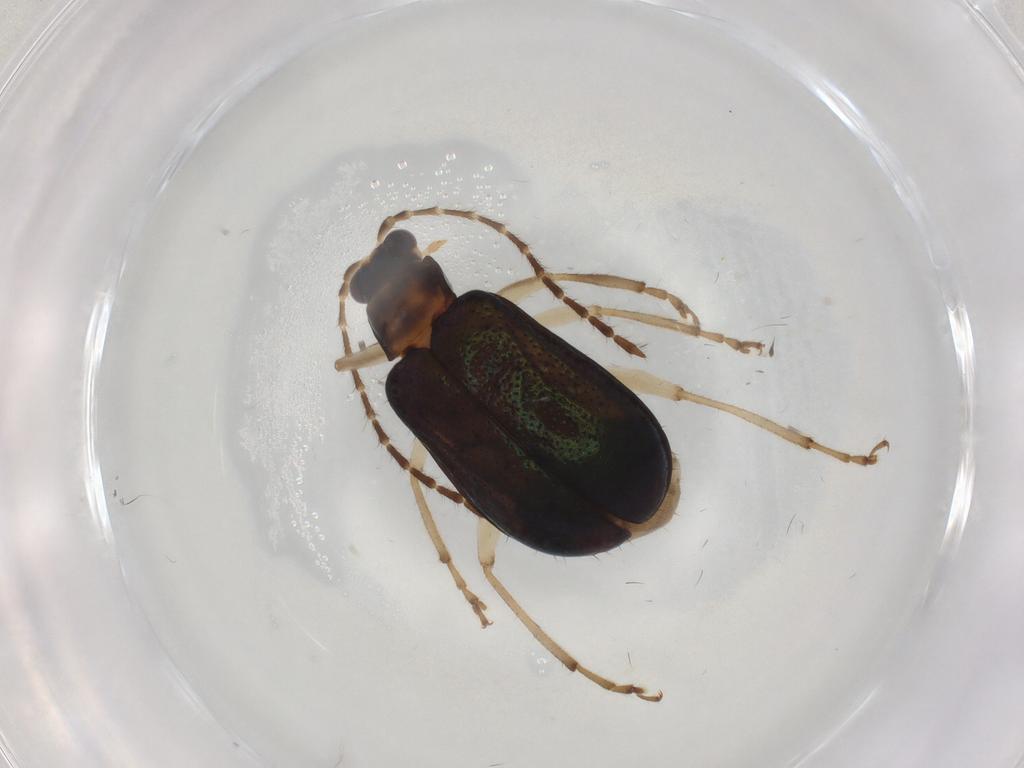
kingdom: Animalia
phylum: Arthropoda
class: Insecta
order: Coleoptera
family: Chrysomelidae
